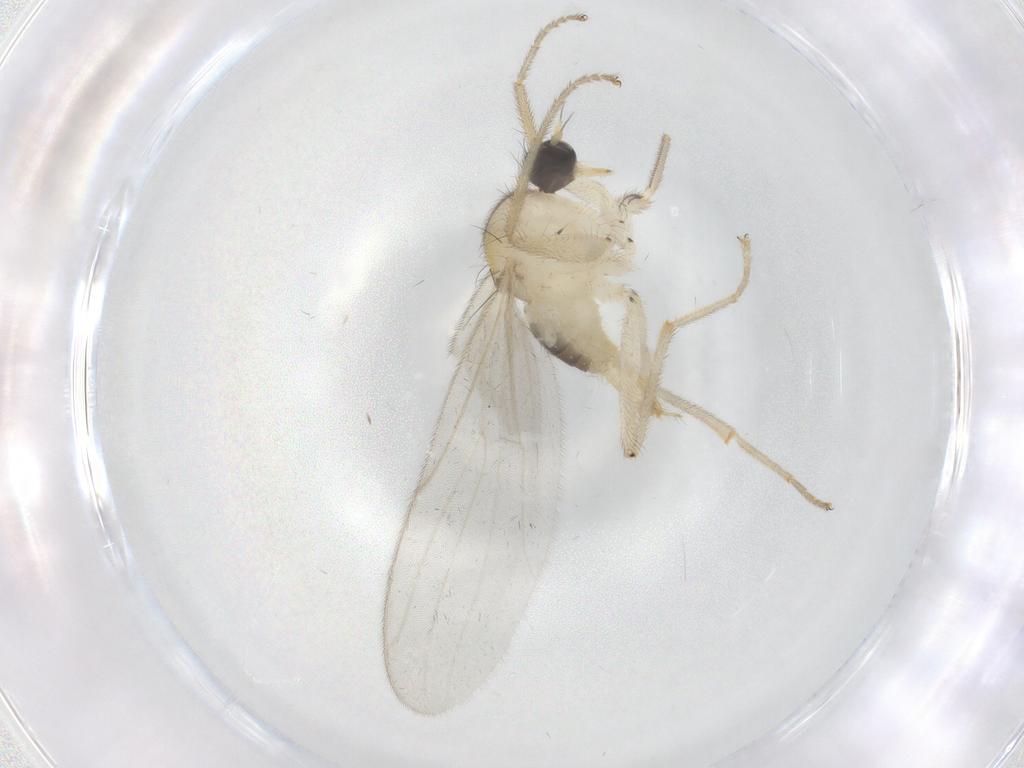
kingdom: Animalia
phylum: Arthropoda
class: Insecta
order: Diptera
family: Hybotidae
